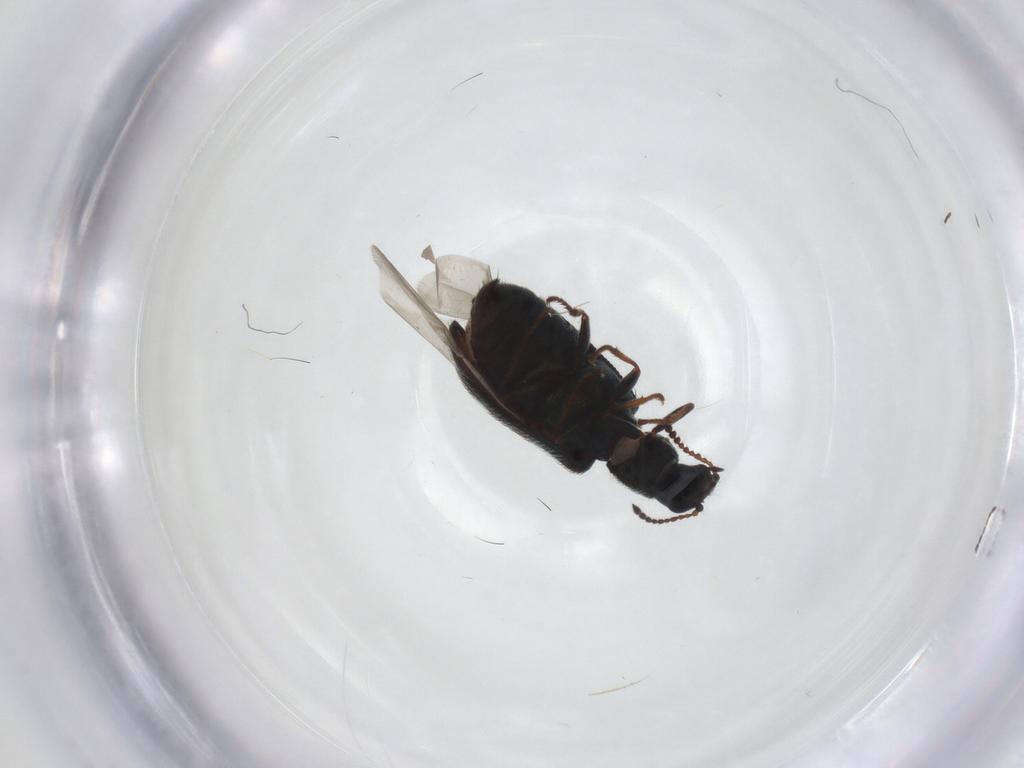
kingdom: Animalia
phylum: Arthropoda
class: Insecta
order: Coleoptera
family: Melyridae
